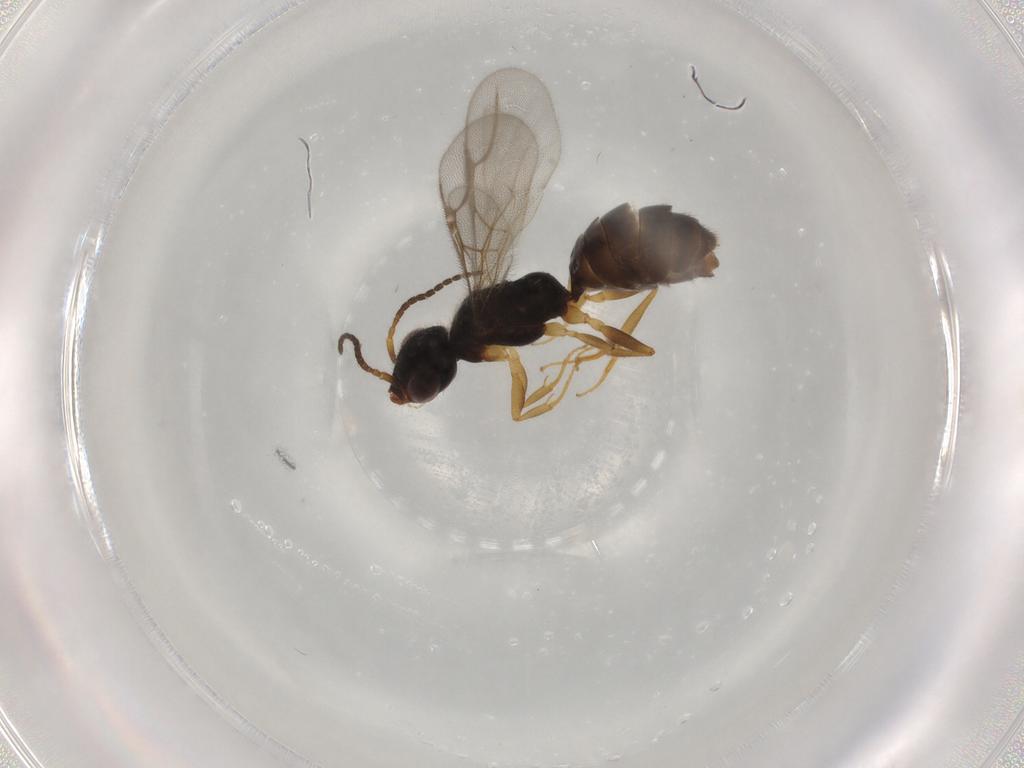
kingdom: Animalia
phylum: Arthropoda
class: Insecta
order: Hymenoptera
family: Bethylidae
